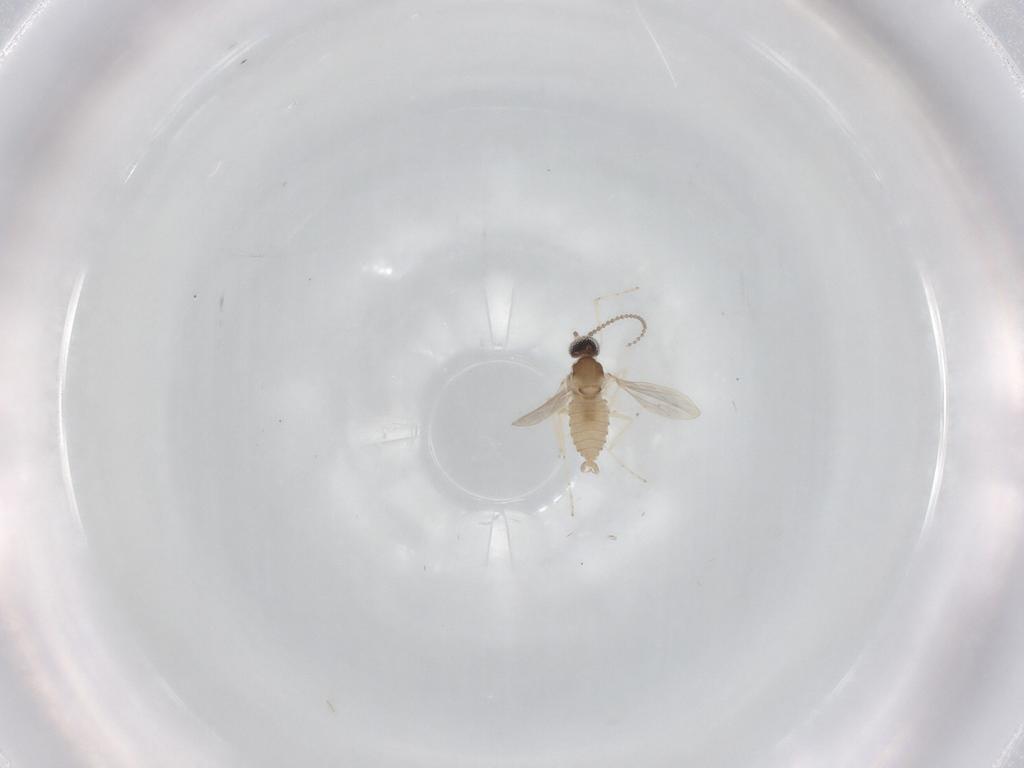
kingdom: Animalia
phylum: Arthropoda
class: Insecta
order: Diptera
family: Cecidomyiidae
